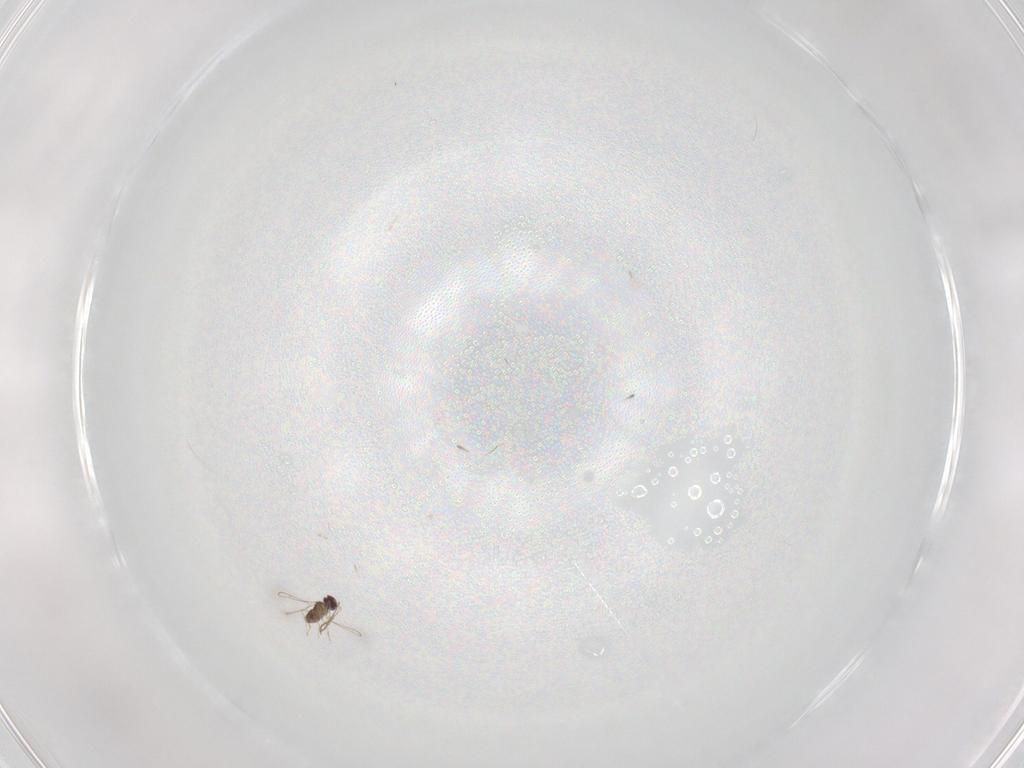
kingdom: Animalia
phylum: Arthropoda
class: Insecta
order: Hymenoptera
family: Mymaridae
